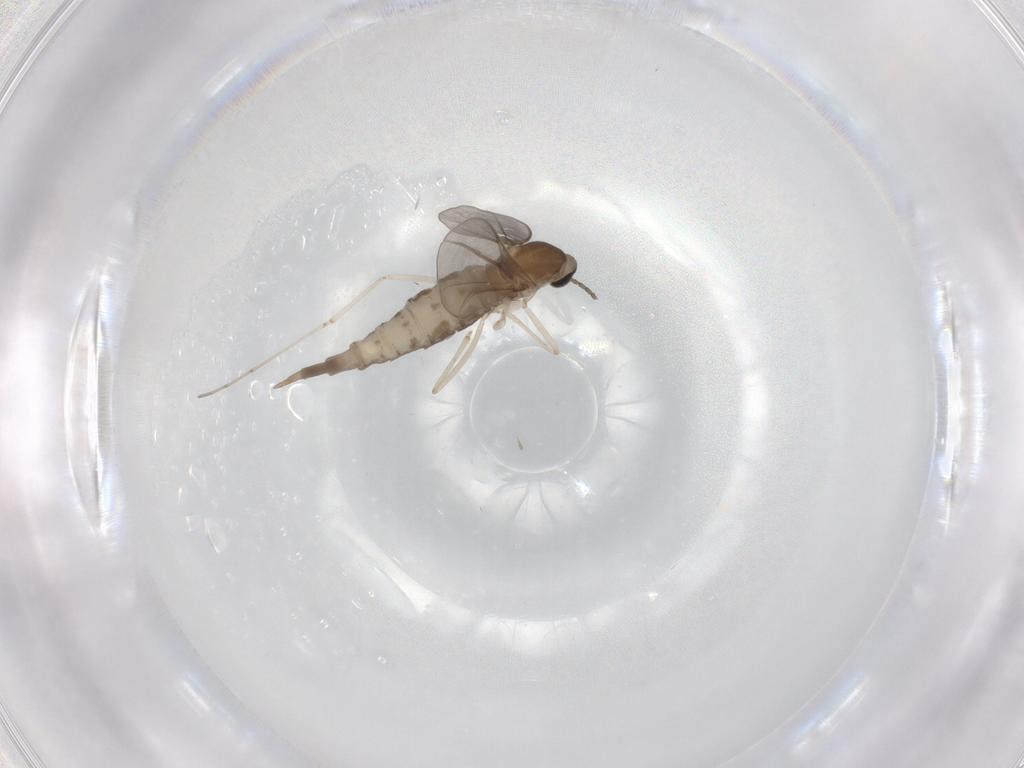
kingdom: Animalia
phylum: Arthropoda
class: Insecta
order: Diptera
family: Cecidomyiidae
